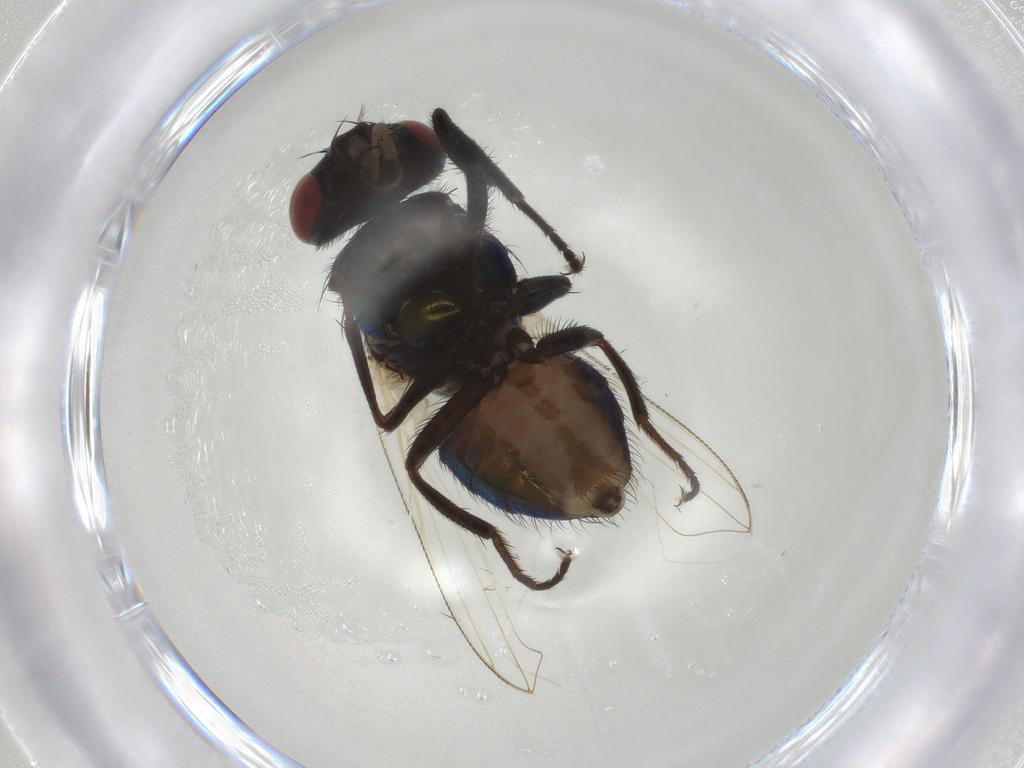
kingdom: Animalia
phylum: Arthropoda
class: Insecta
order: Diptera
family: Muscidae
